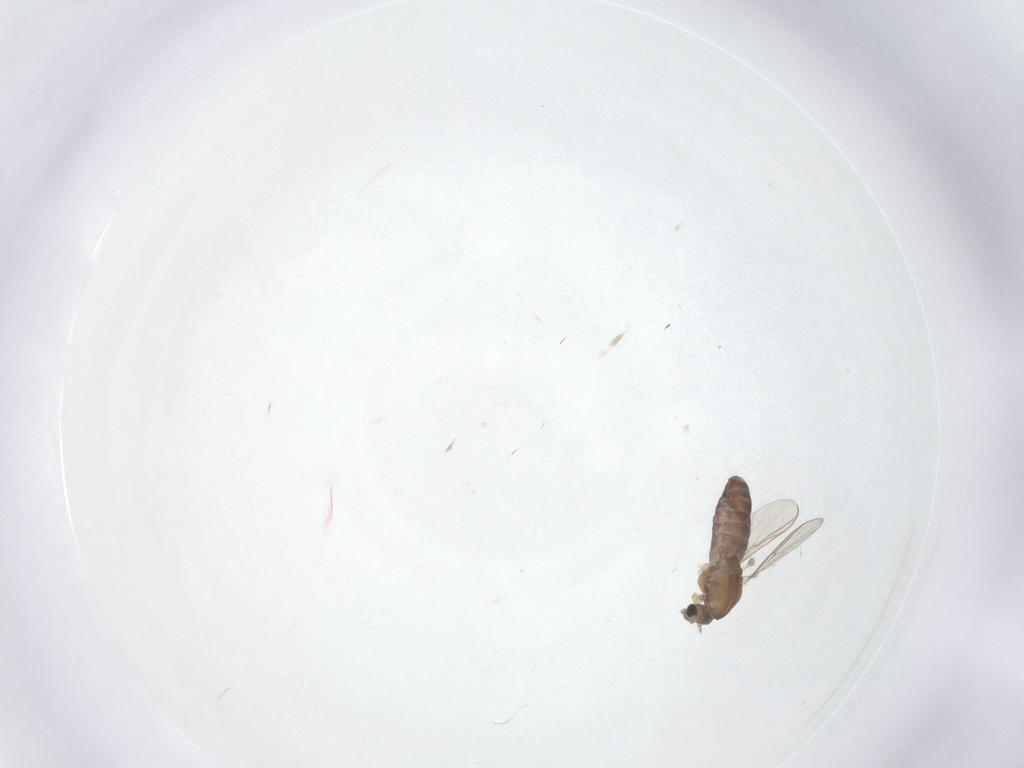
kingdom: Animalia
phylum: Arthropoda
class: Insecta
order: Diptera
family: Chironomidae
